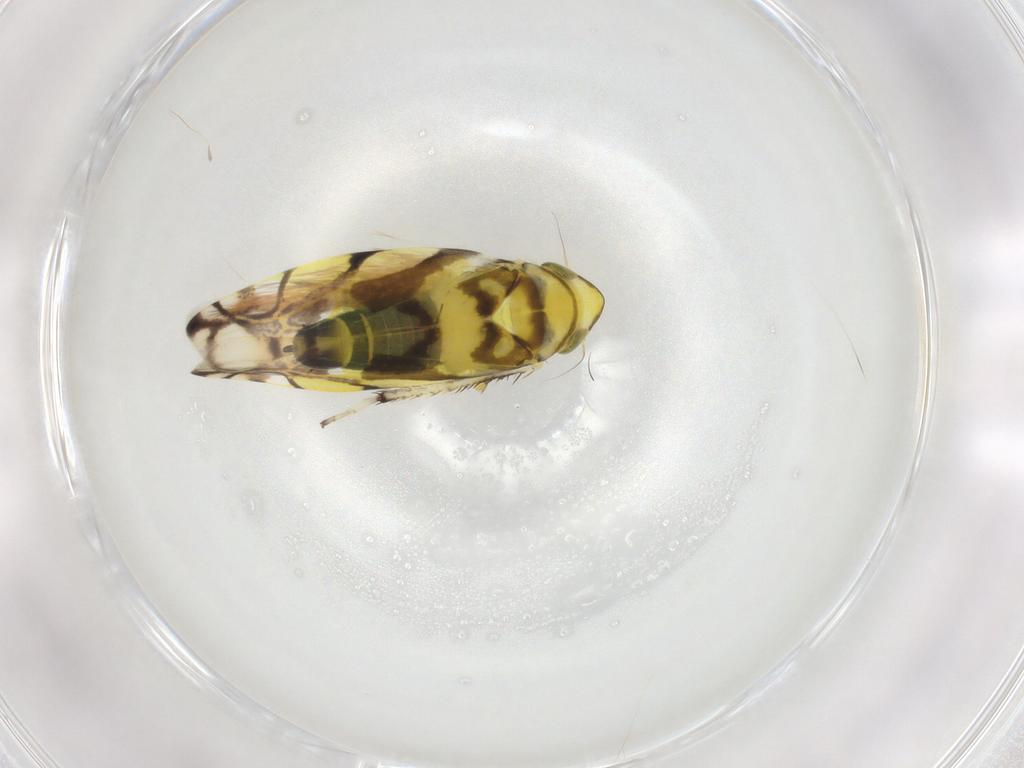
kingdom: Animalia
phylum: Arthropoda
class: Insecta
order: Hemiptera
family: Cicadellidae
